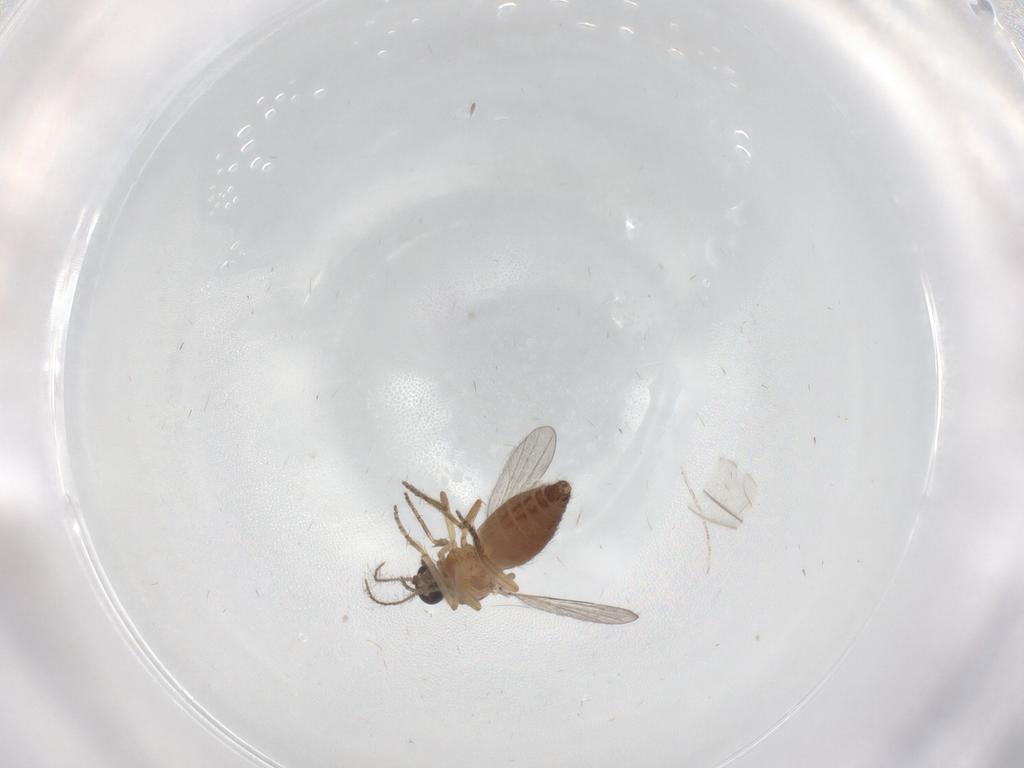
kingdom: Animalia
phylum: Arthropoda
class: Insecta
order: Diptera
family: Ceratopogonidae
